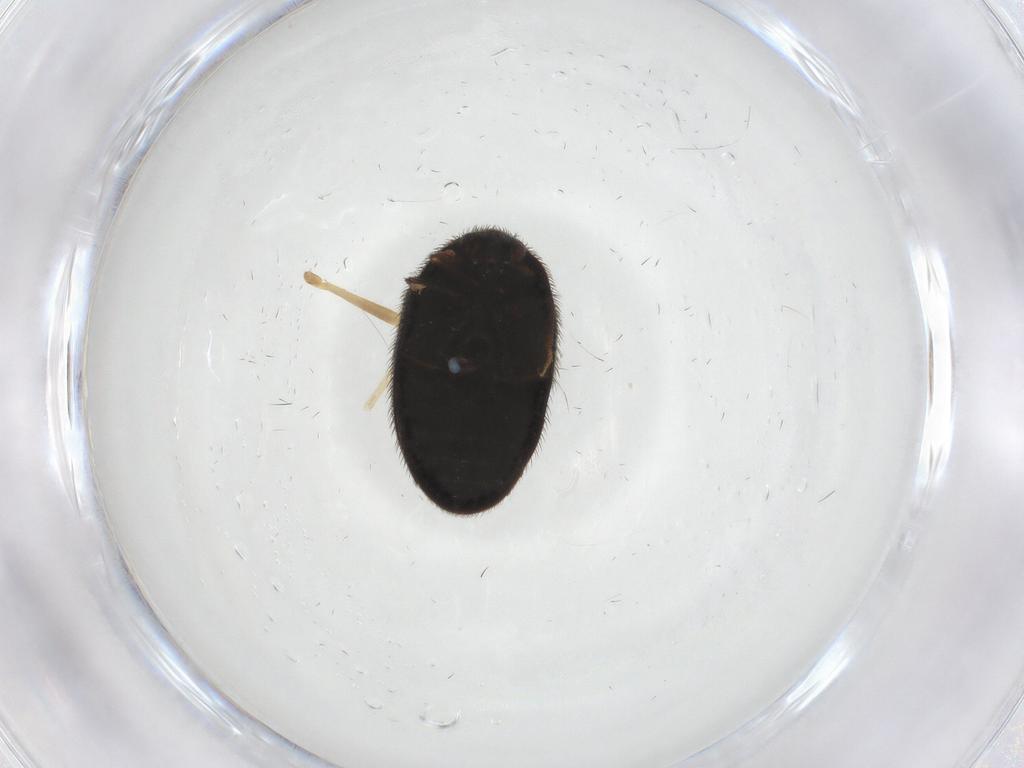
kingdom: Animalia
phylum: Arthropoda
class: Insecta
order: Coleoptera
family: Dermestidae
